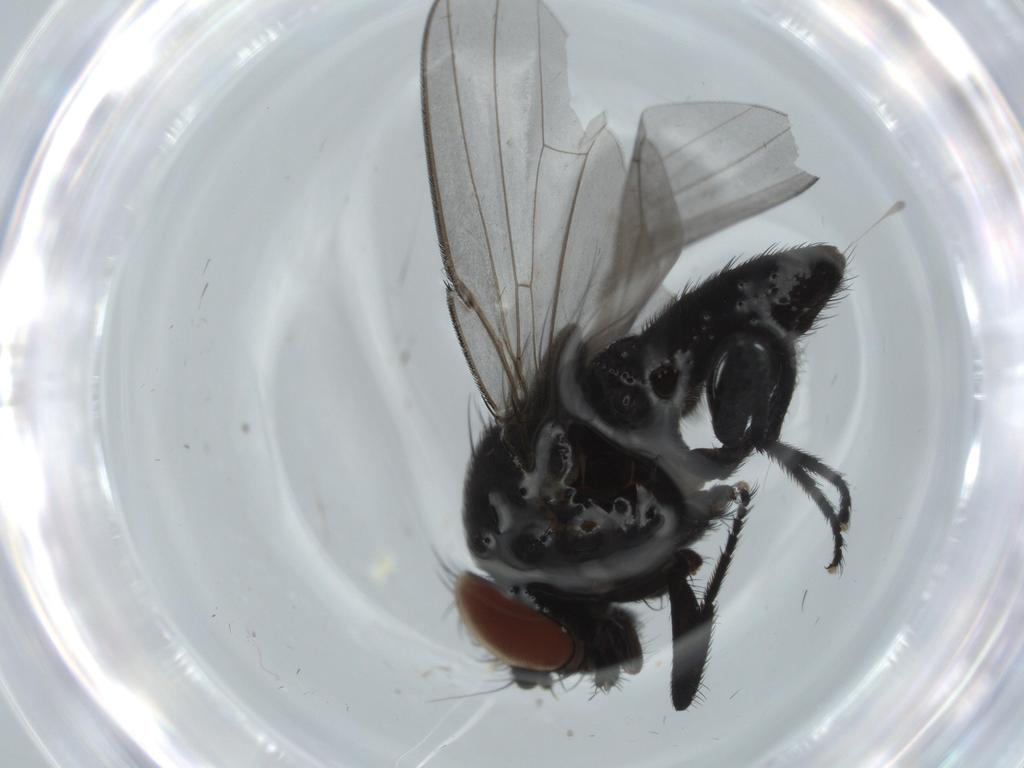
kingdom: Animalia
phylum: Arthropoda
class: Insecta
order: Diptera
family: Milichiidae
